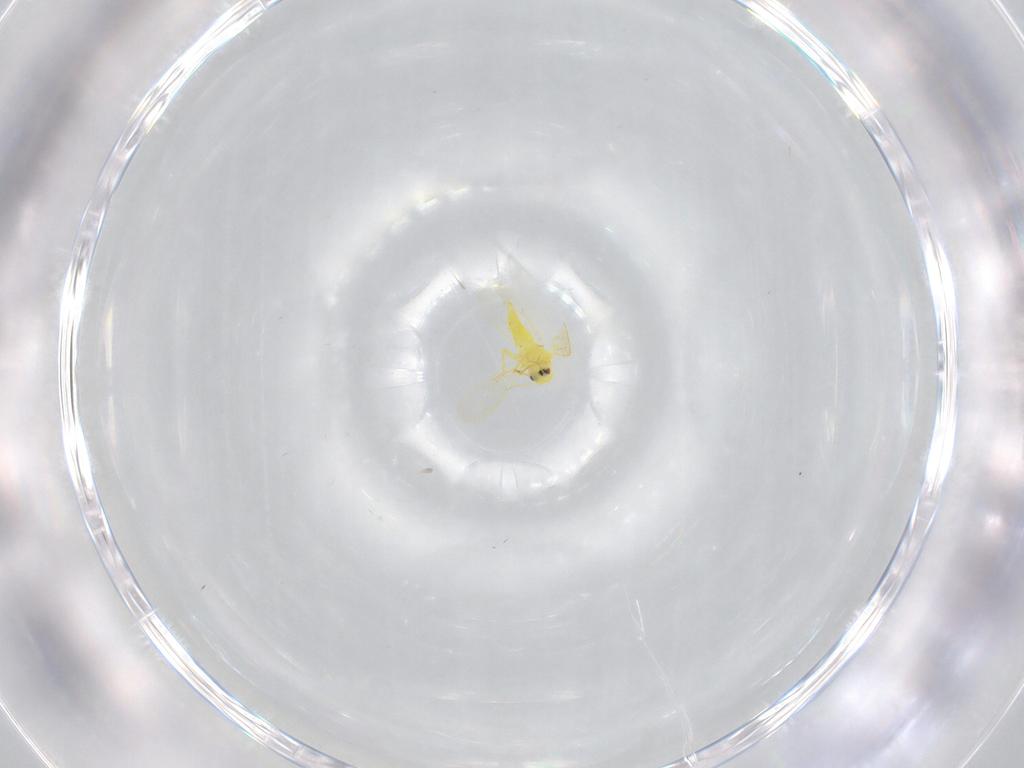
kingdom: Animalia
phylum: Arthropoda
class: Insecta
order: Hemiptera
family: Aleyrodidae
